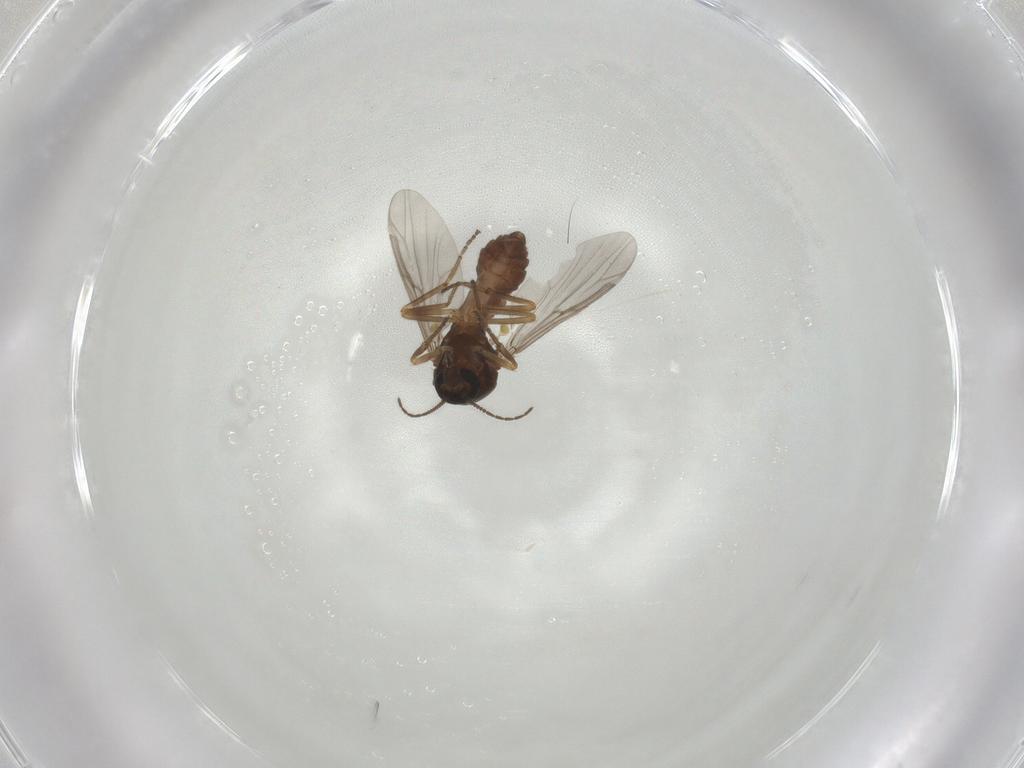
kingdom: Animalia
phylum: Arthropoda
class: Insecta
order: Diptera
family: Ceratopogonidae
